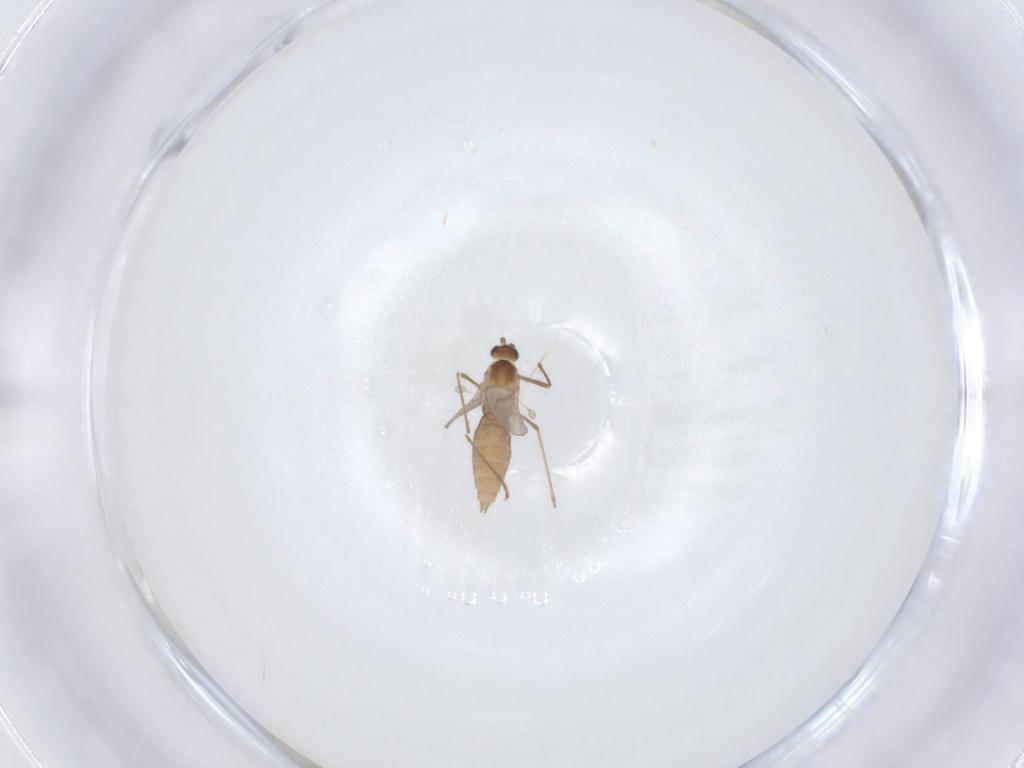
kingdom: Animalia
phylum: Arthropoda
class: Insecta
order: Diptera
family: Cecidomyiidae
